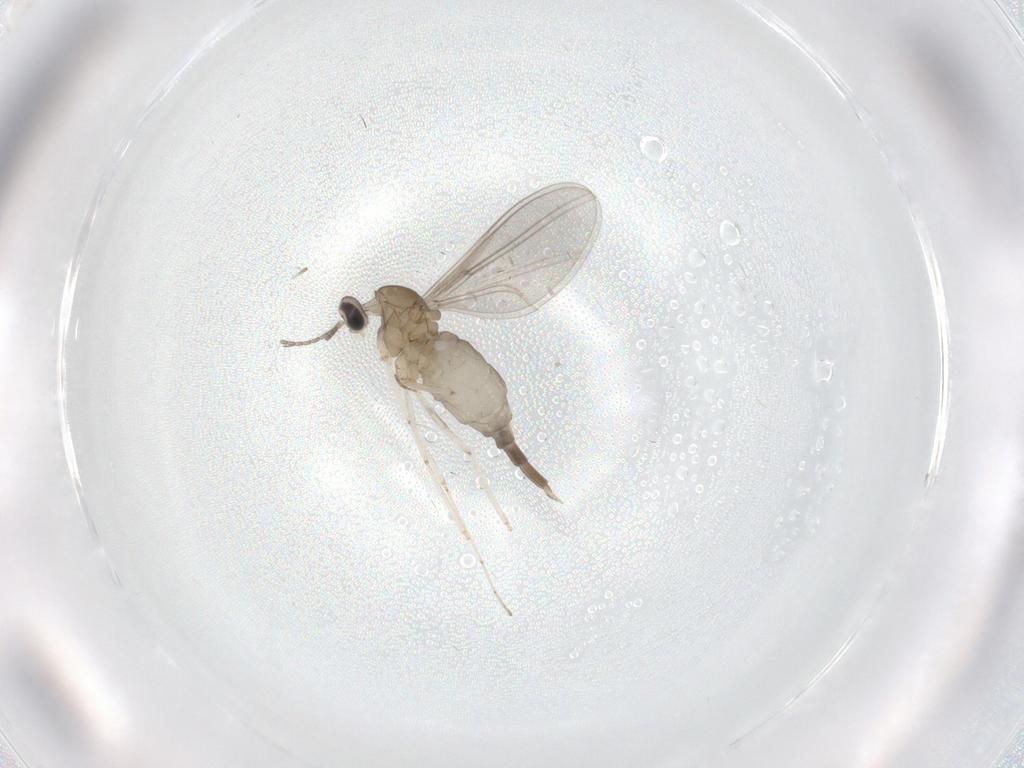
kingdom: Animalia
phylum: Arthropoda
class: Insecta
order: Diptera
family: Cecidomyiidae
